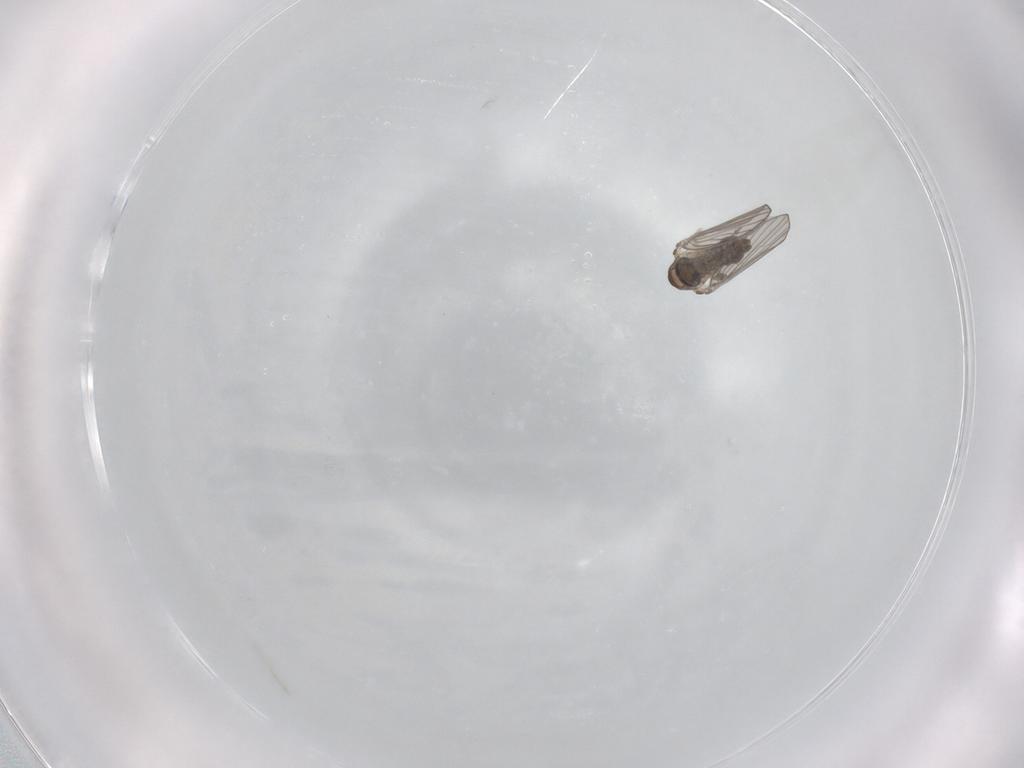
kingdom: Animalia
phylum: Arthropoda
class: Insecta
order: Diptera
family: Psychodidae
